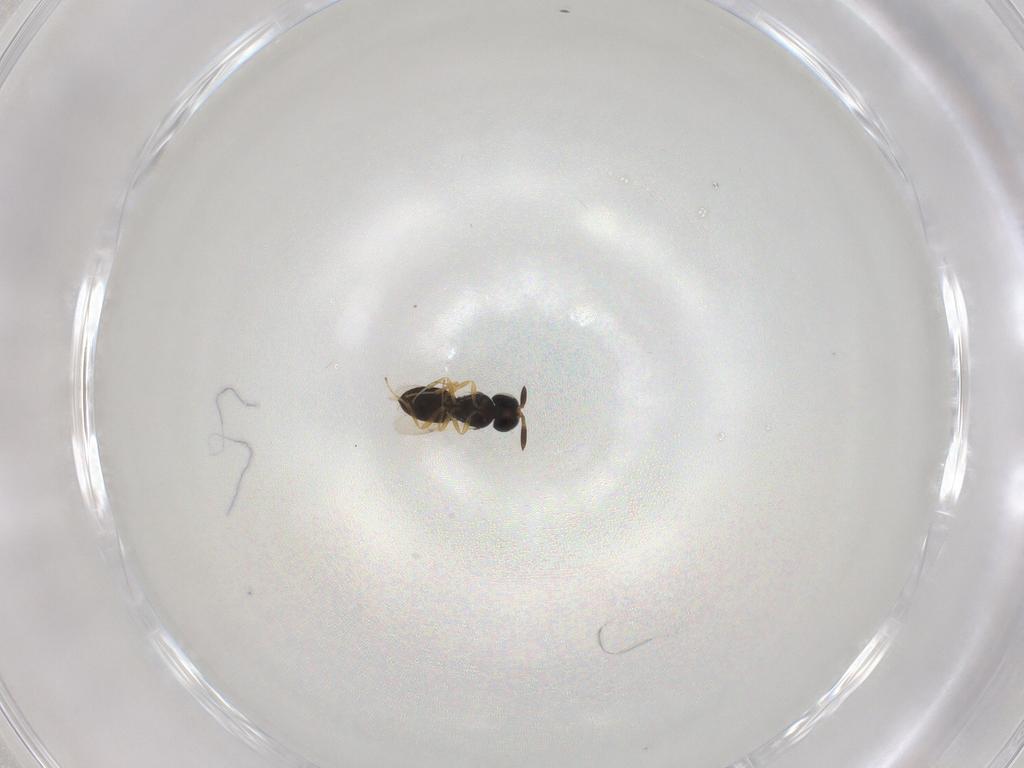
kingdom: Animalia
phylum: Arthropoda
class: Insecta
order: Hymenoptera
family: Scelionidae
